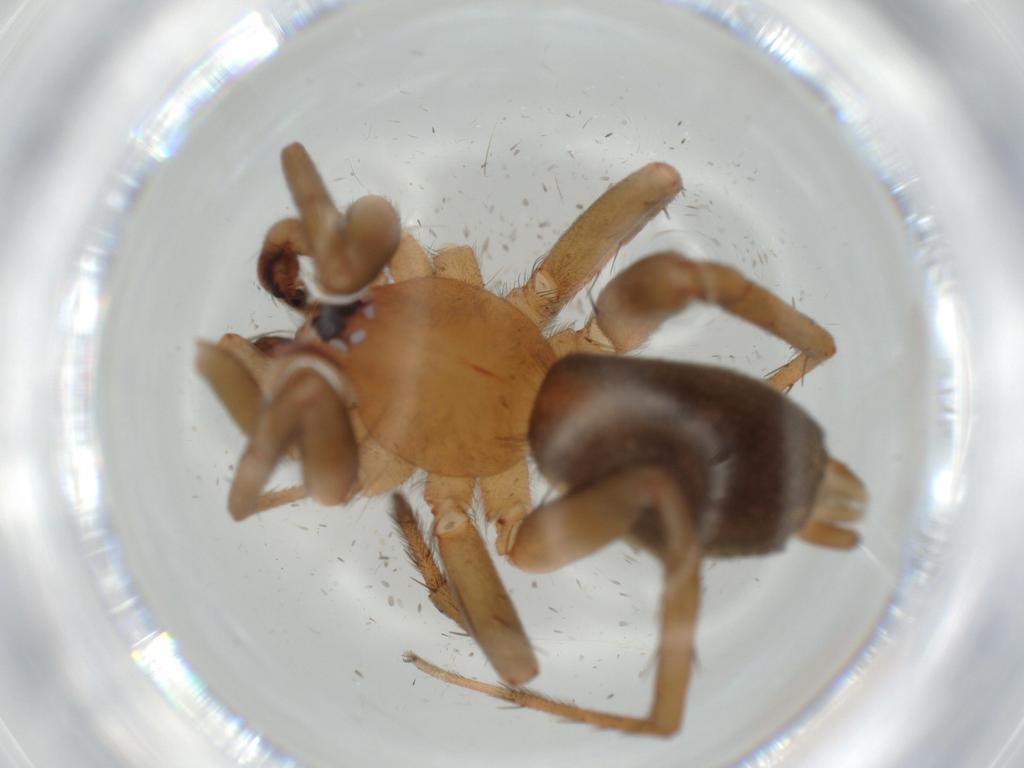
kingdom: Animalia
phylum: Arthropoda
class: Arachnida
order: Araneae
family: Gnaphosidae
